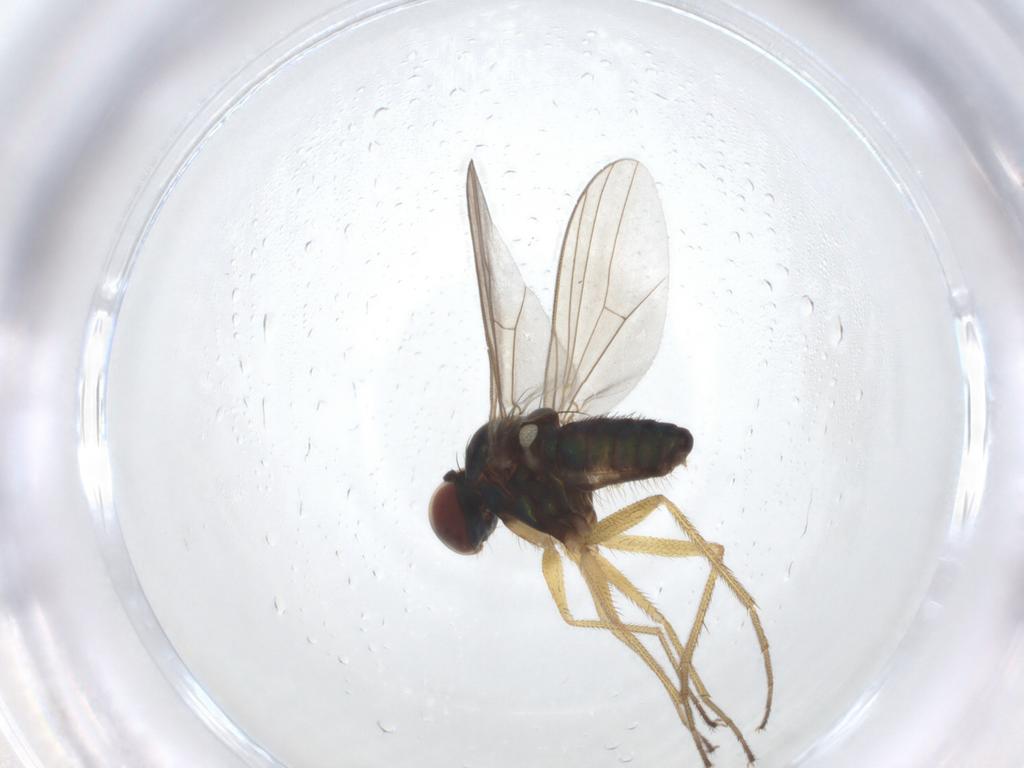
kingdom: Animalia
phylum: Arthropoda
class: Insecta
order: Diptera
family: Dolichopodidae
